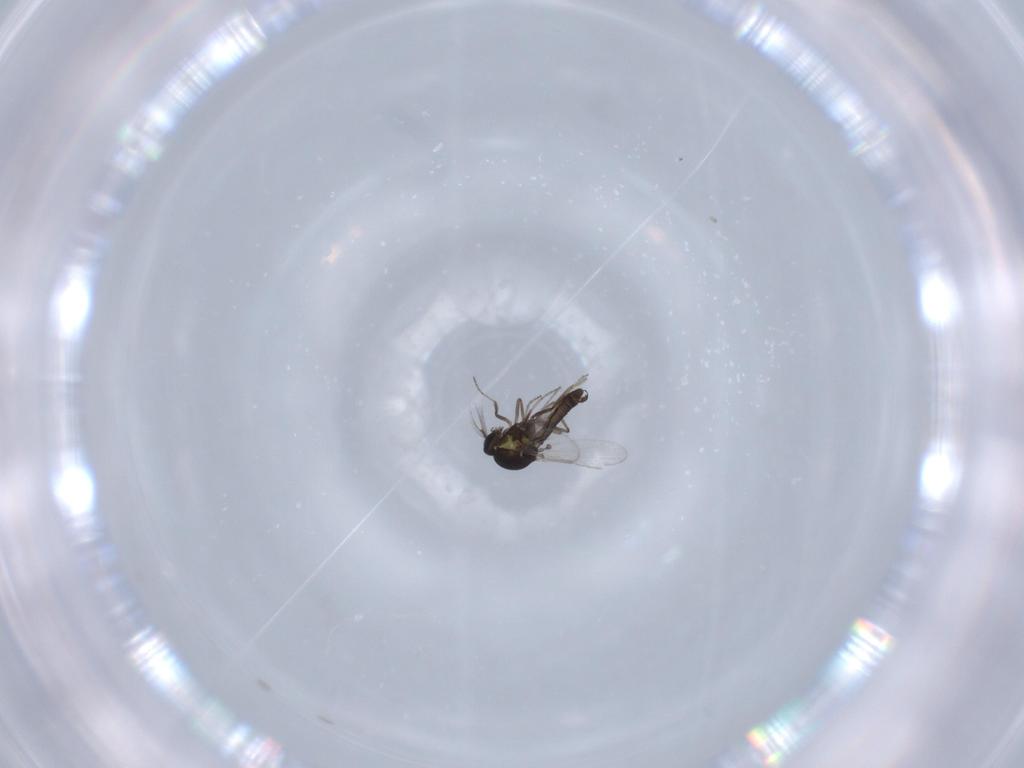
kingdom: Animalia
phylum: Arthropoda
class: Insecta
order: Diptera
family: Ceratopogonidae
